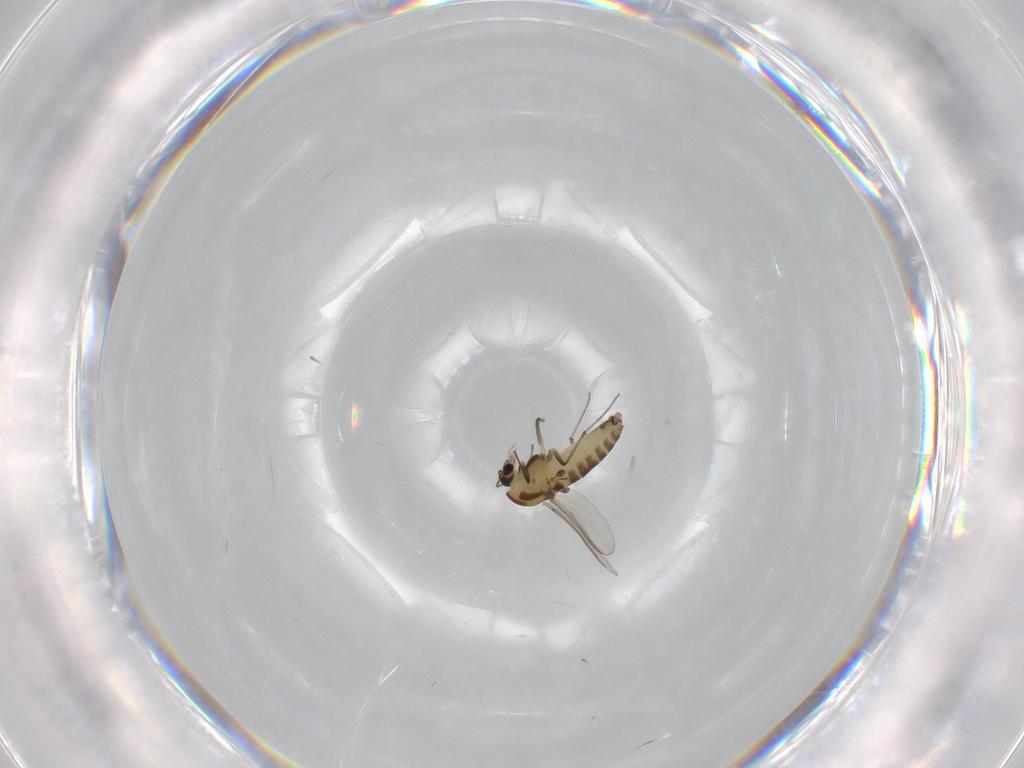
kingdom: Animalia
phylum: Arthropoda
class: Insecta
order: Diptera
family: Chironomidae
